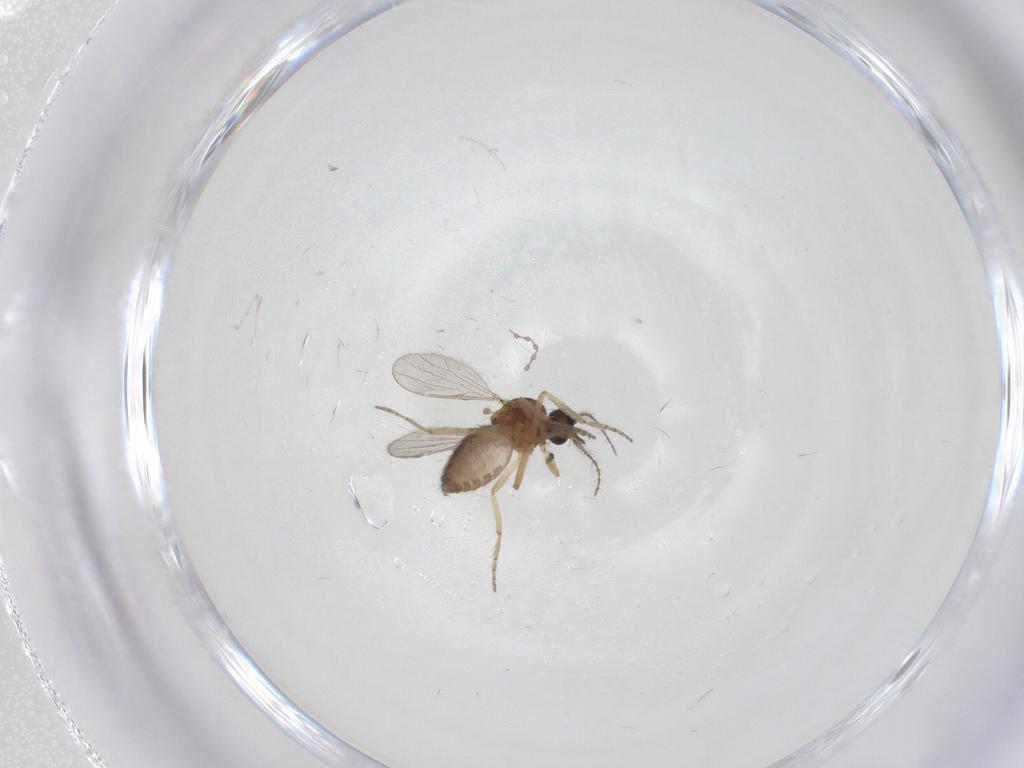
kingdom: Animalia
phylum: Arthropoda
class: Insecta
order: Diptera
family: Ceratopogonidae
